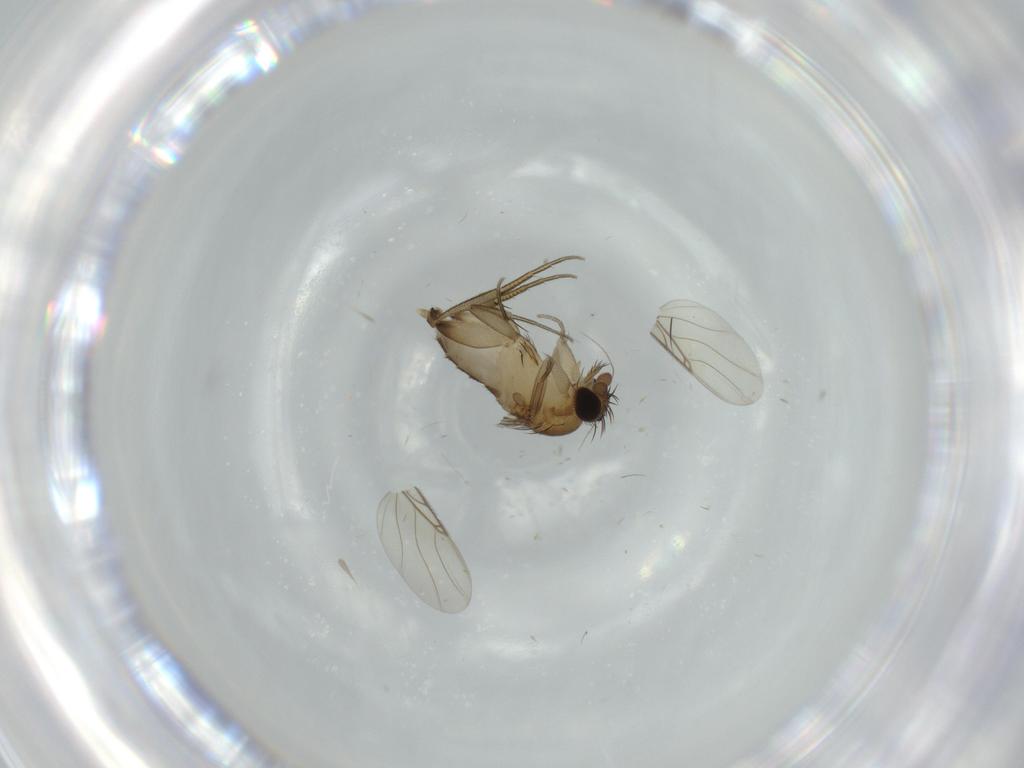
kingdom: Animalia
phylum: Arthropoda
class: Insecta
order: Diptera
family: Phoridae
